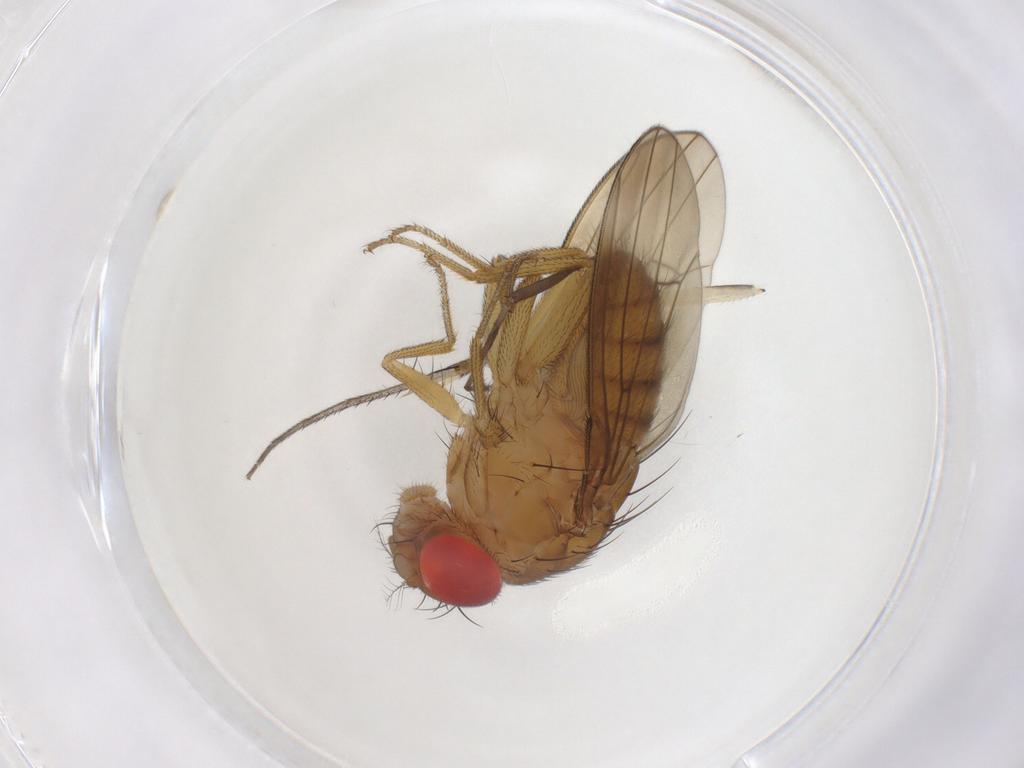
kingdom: Animalia
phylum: Arthropoda
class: Insecta
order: Diptera
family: Drosophilidae
